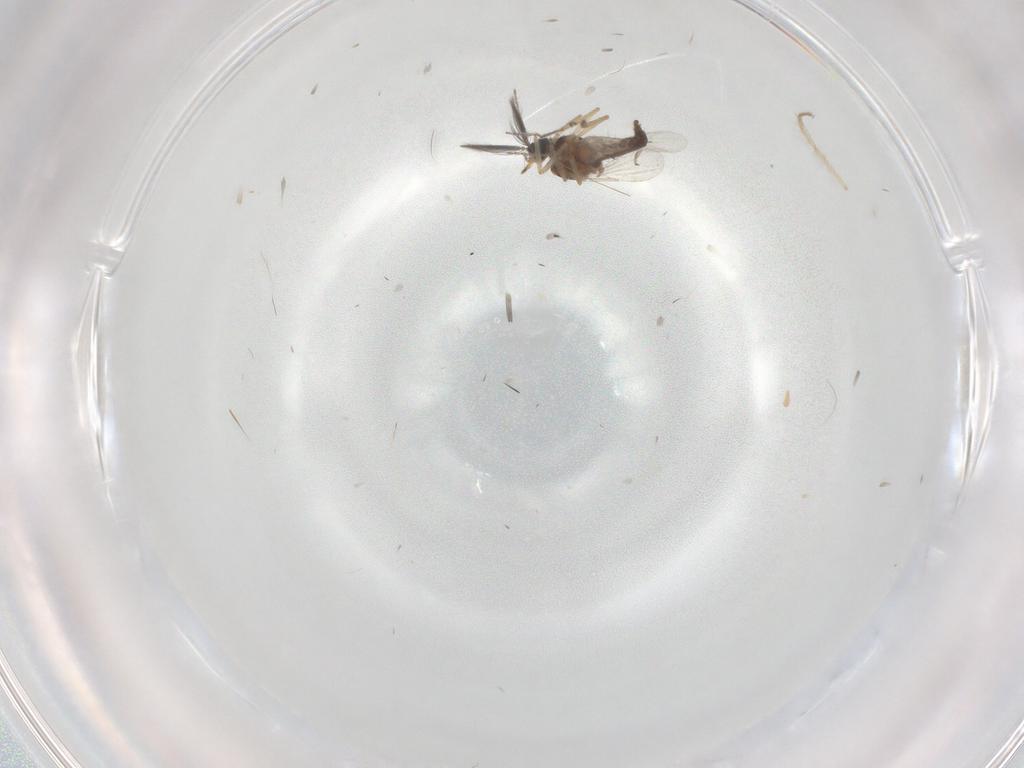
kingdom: Animalia
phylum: Arthropoda
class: Insecta
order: Diptera
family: Ceratopogonidae
